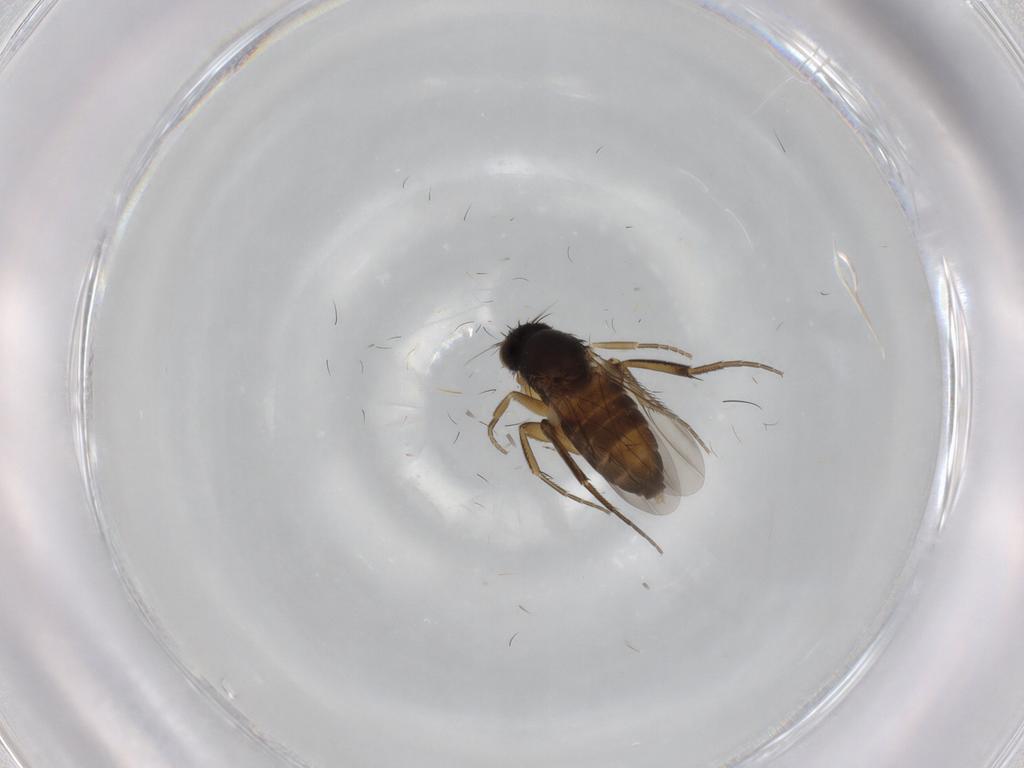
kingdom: Animalia
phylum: Arthropoda
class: Insecta
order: Diptera
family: Phoridae
